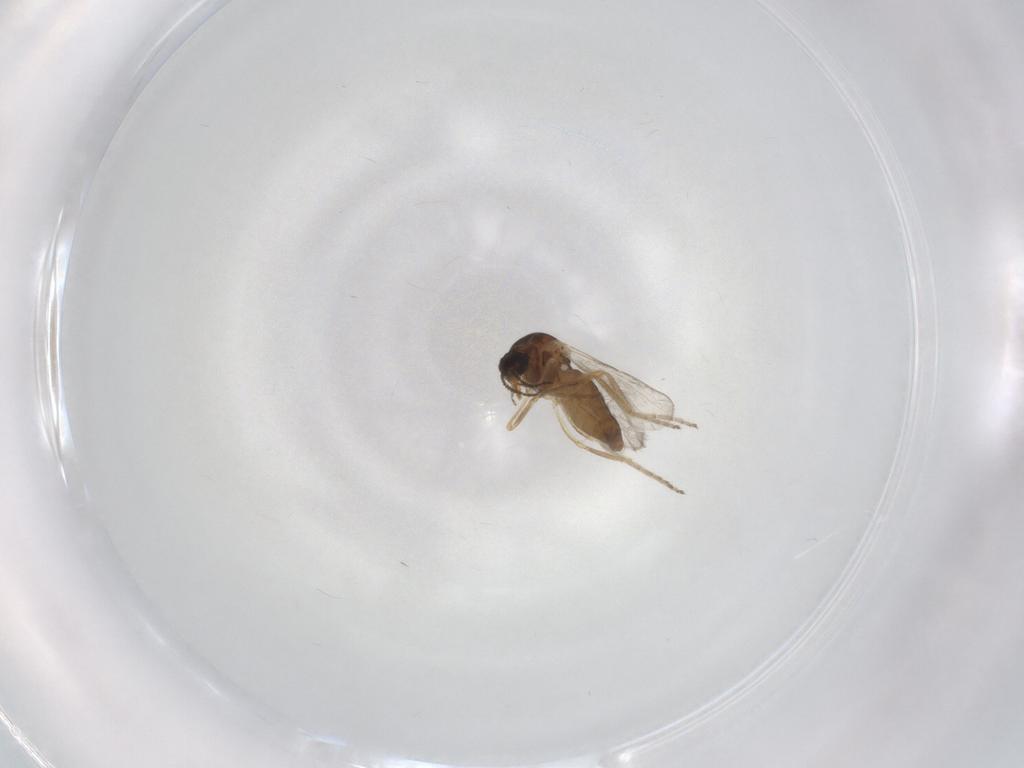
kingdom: Animalia
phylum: Arthropoda
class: Insecta
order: Diptera
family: Ceratopogonidae
